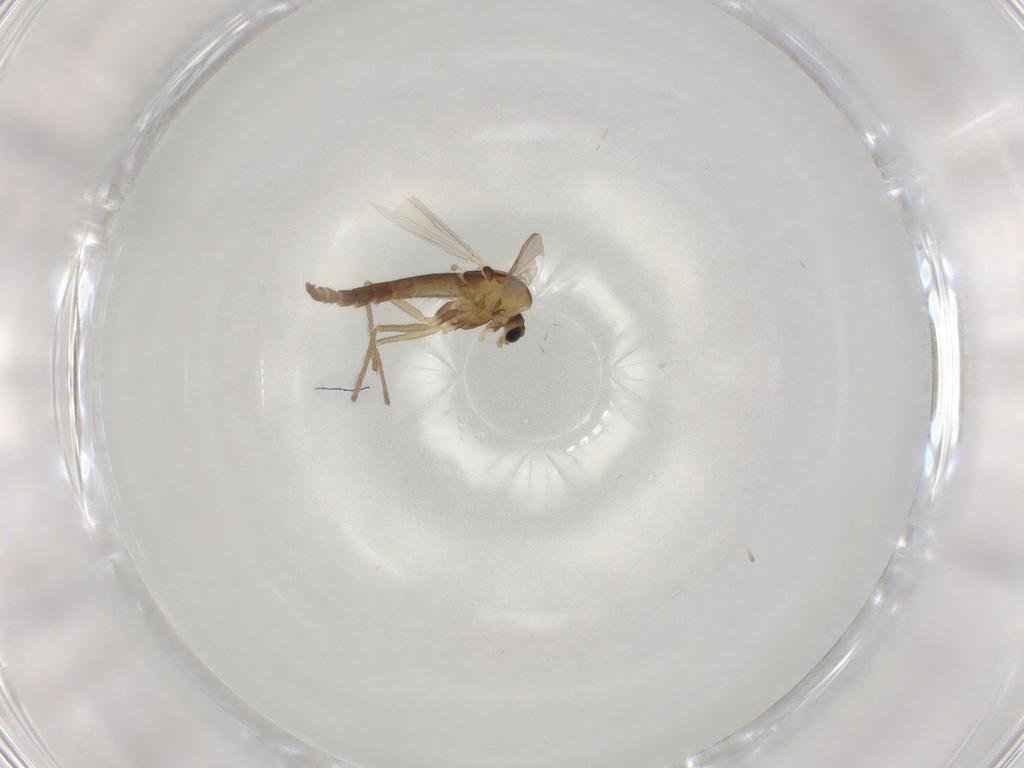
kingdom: Animalia
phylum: Arthropoda
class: Insecta
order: Diptera
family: Chironomidae
